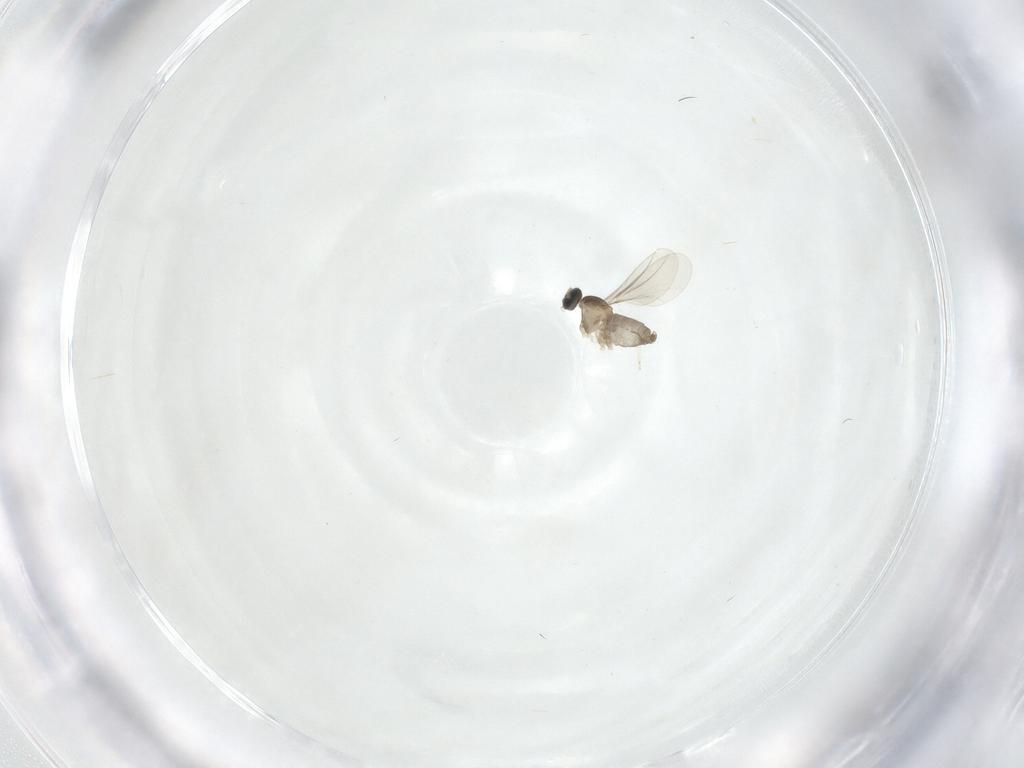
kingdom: Animalia
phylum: Arthropoda
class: Insecta
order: Diptera
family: Cecidomyiidae
